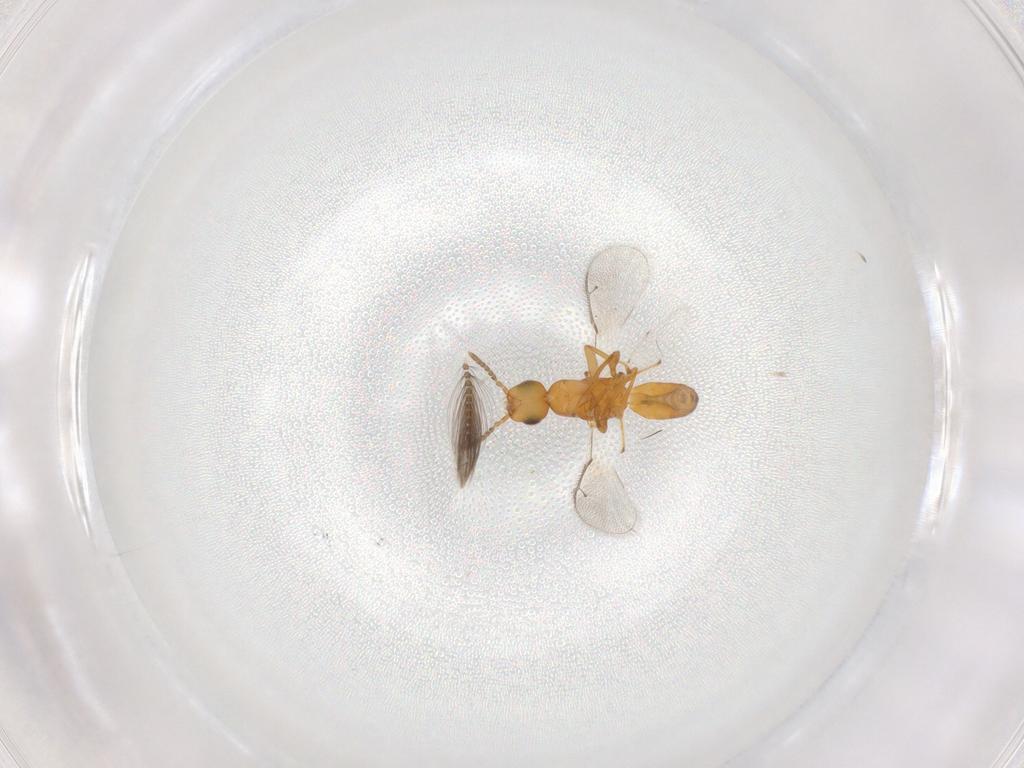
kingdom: Animalia
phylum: Arthropoda
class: Insecta
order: Hymenoptera
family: Pteromalidae
